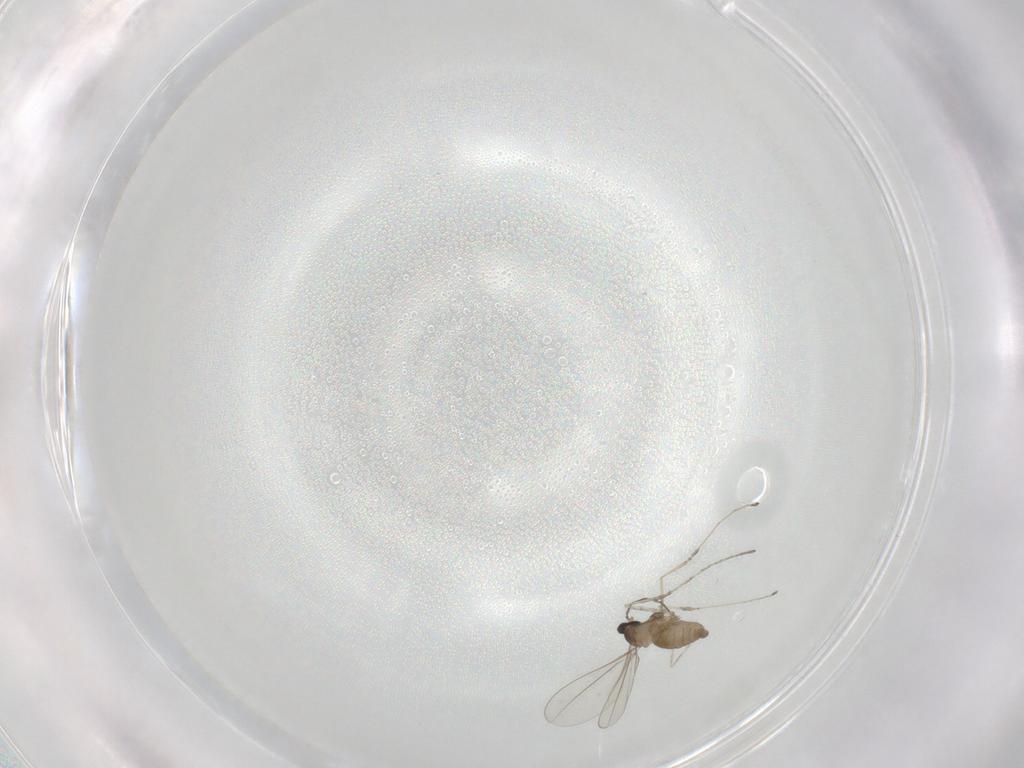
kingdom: Animalia
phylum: Arthropoda
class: Insecta
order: Diptera
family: Cecidomyiidae
